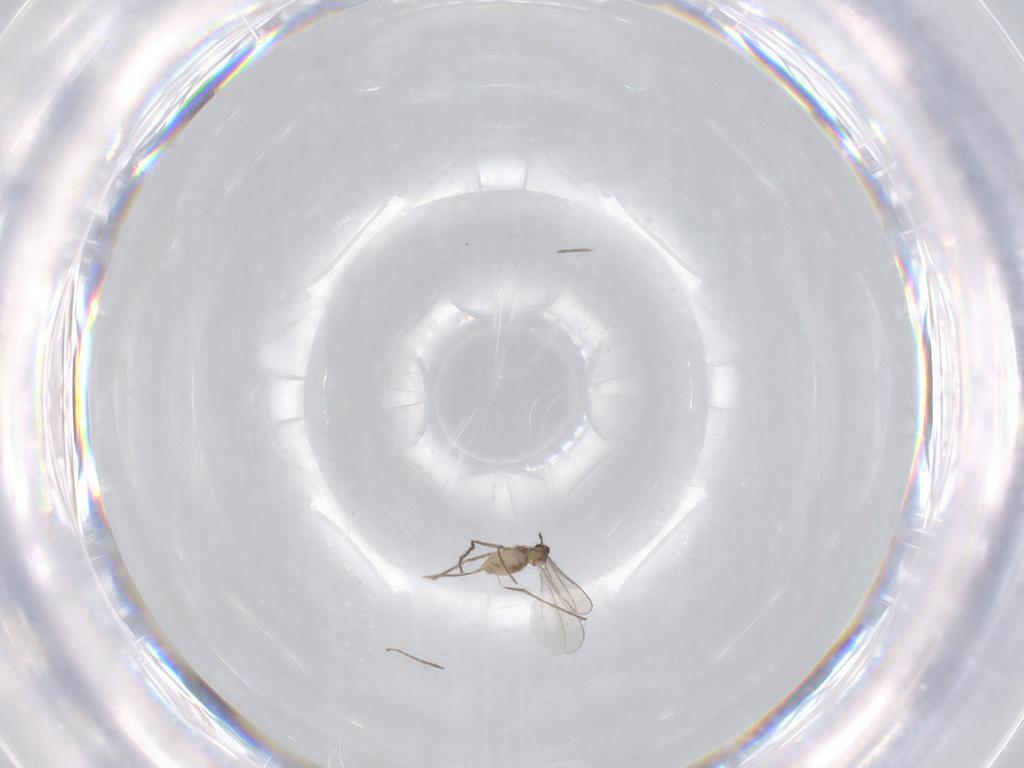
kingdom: Animalia
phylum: Arthropoda
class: Insecta
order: Diptera
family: Cecidomyiidae
